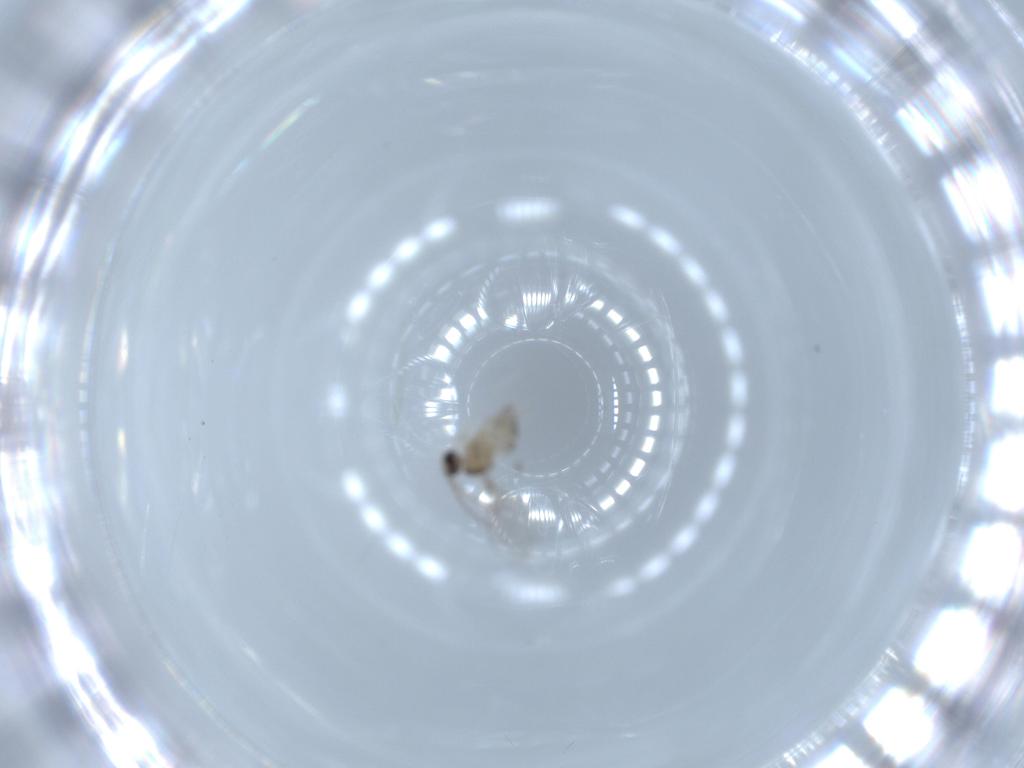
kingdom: Animalia
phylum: Arthropoda
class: Insecta
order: Diptera
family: Cecidomyiidae
